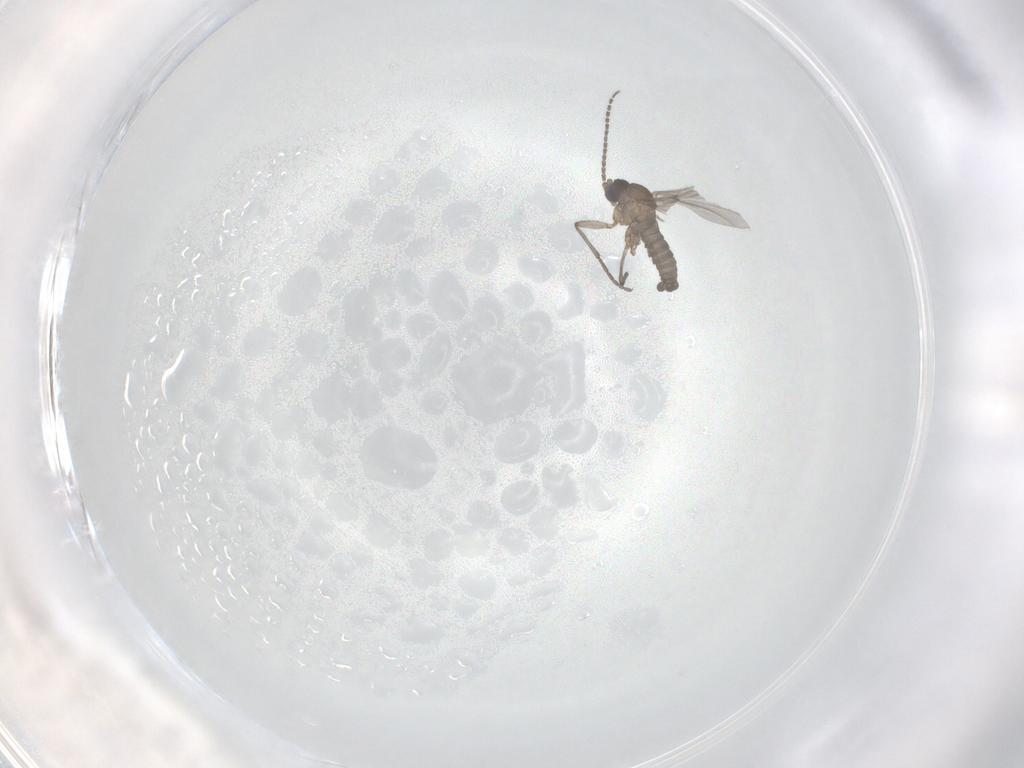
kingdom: Animalia
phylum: Arthropoda
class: Insecta
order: Diptera
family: Sciaridae
